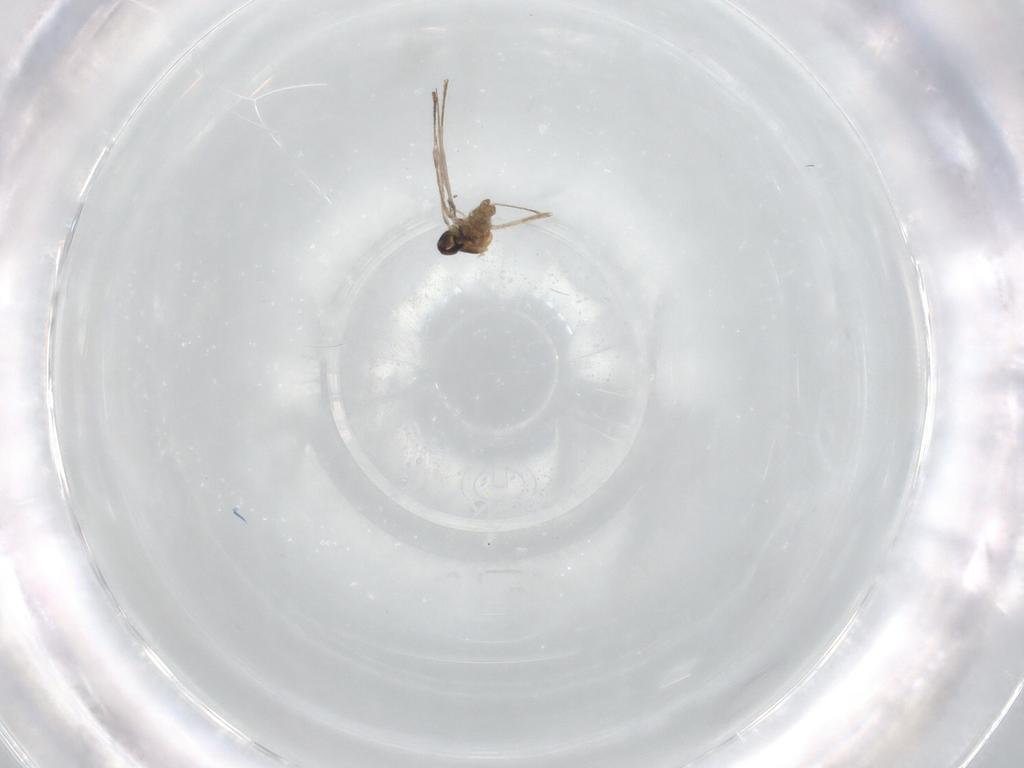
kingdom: Animalia
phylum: Arthropoda
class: Insecta
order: Diptera
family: Cecidomyiidae
